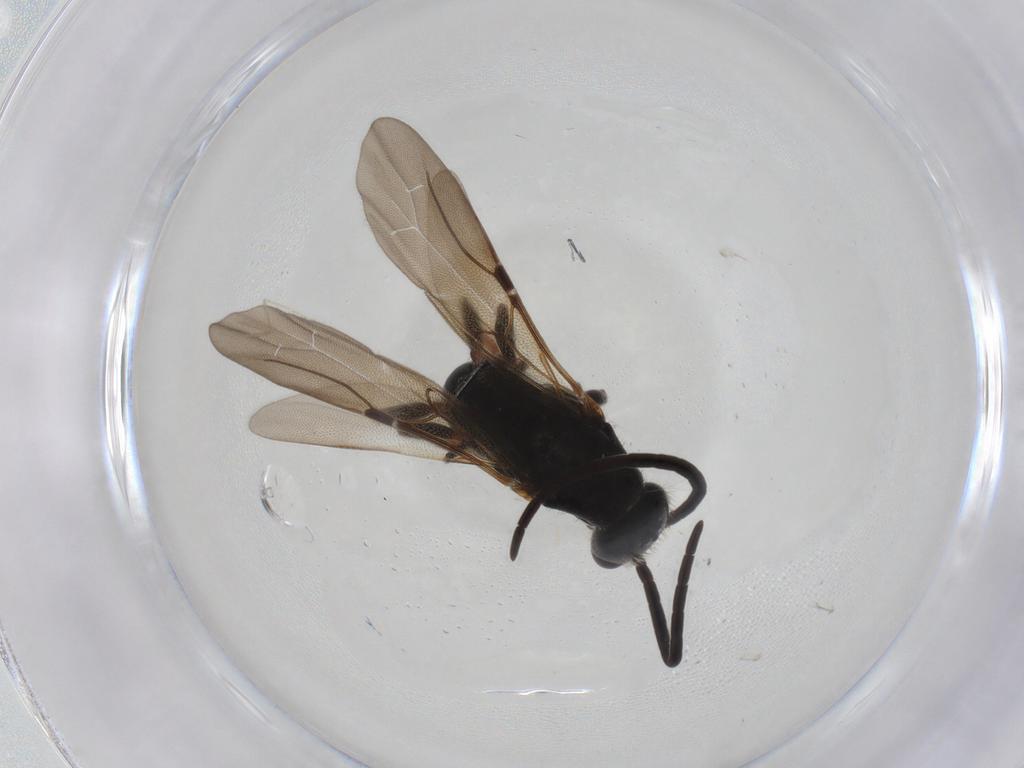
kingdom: Animalia
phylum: Arthropoda
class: Insecta
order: Hymenoptera
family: Bethylidae
